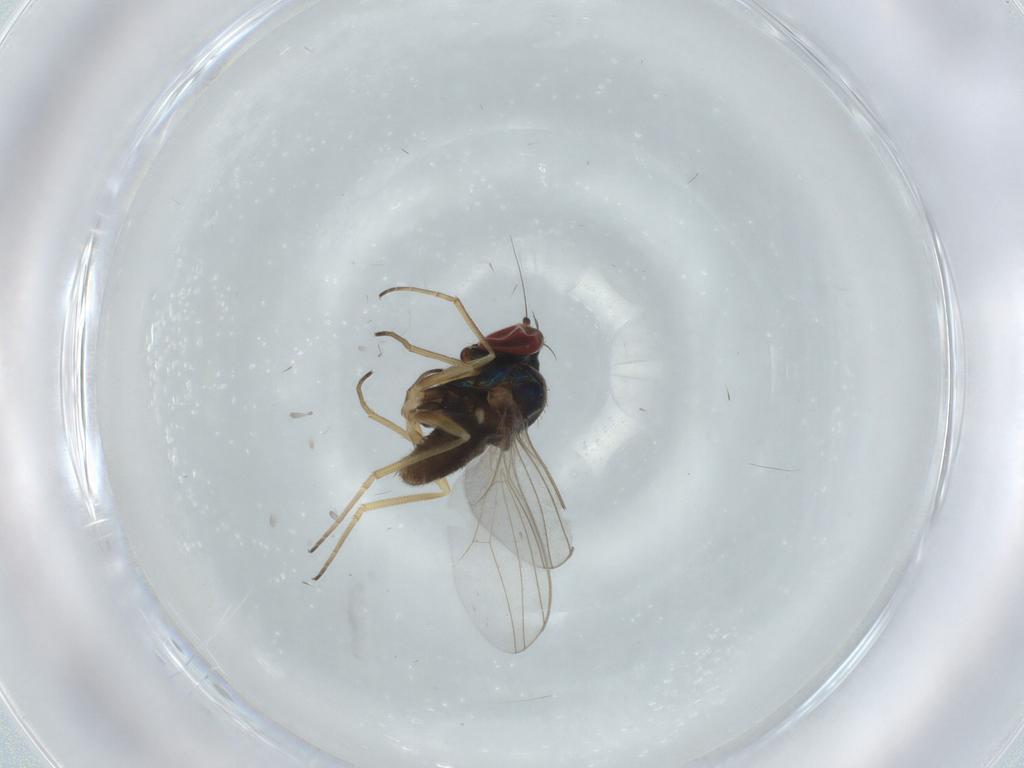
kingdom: Animalia
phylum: Arthropoda
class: Insecta
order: Diptera
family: Dolichopodidae
